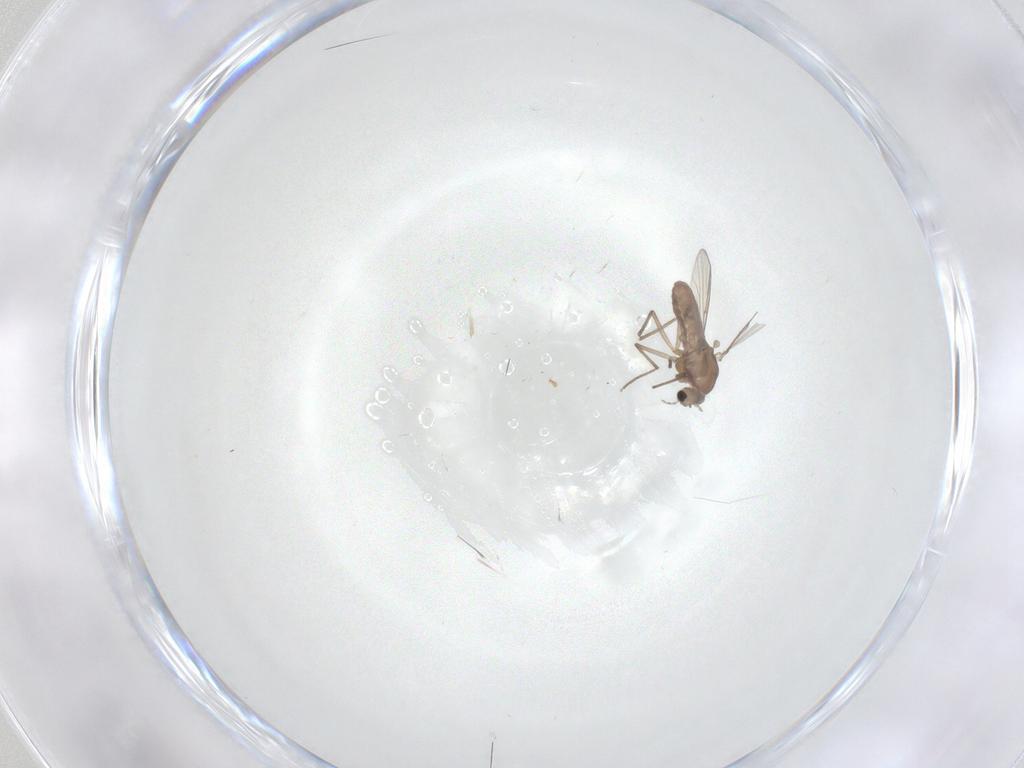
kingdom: Animalia
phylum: Arthropoda
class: Insecta
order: Diptera
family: Chironomidae
